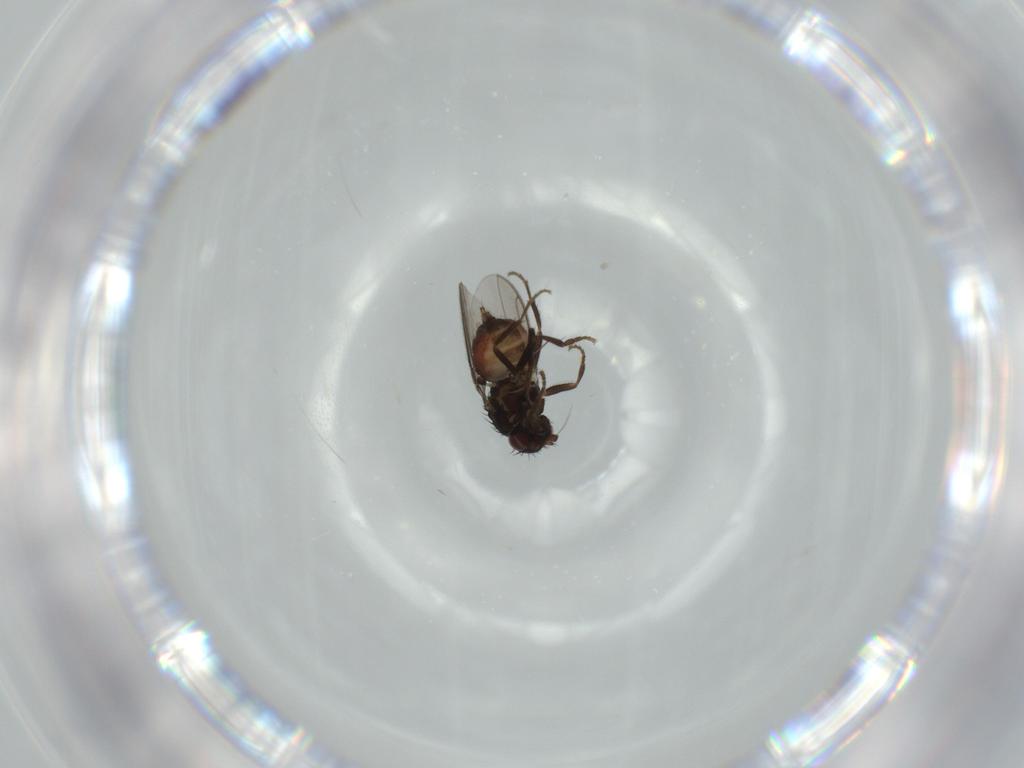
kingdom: Animalia
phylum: Arthropoda
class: Insecta
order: Diptera
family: Sphaeroceridae
